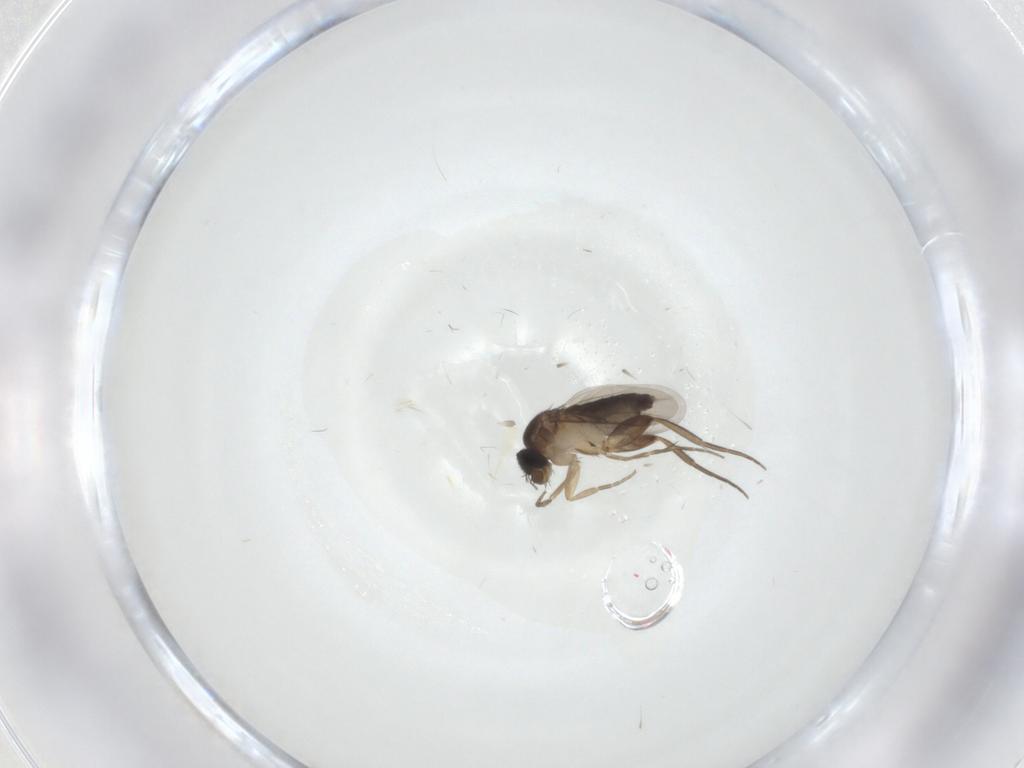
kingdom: Animalia
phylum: Arthropoda
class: Insecta
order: Diptera
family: Phoridae
